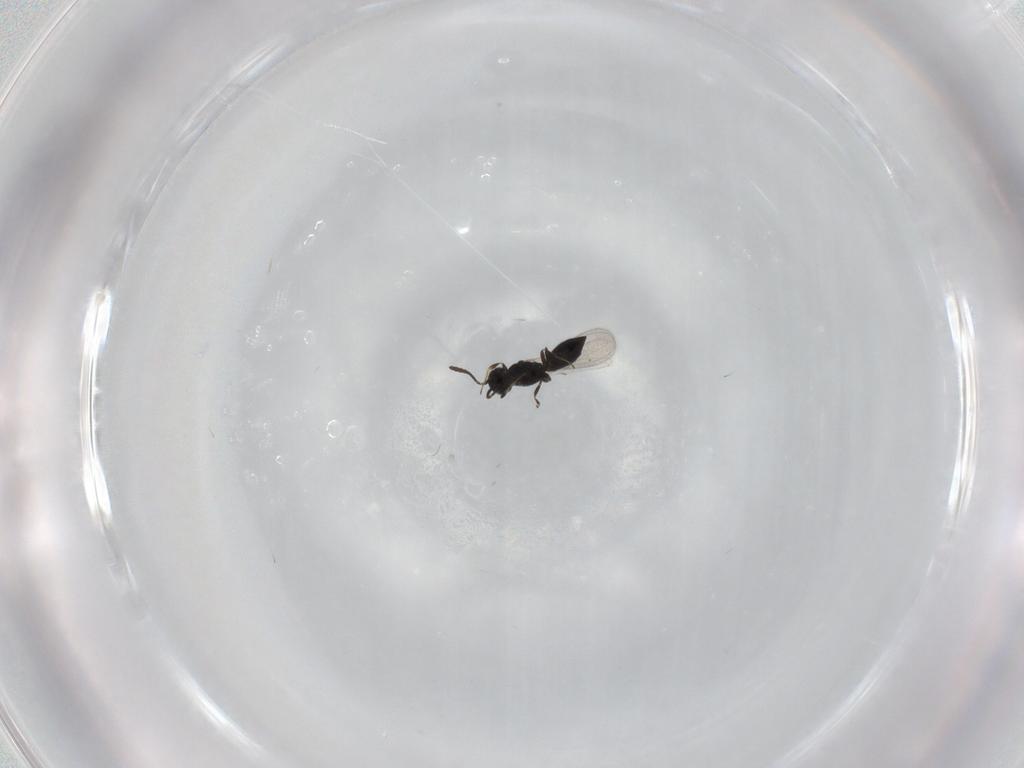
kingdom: Animalia
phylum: Arthropoda
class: Insecta
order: Hymenoptera
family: Scelionidae
